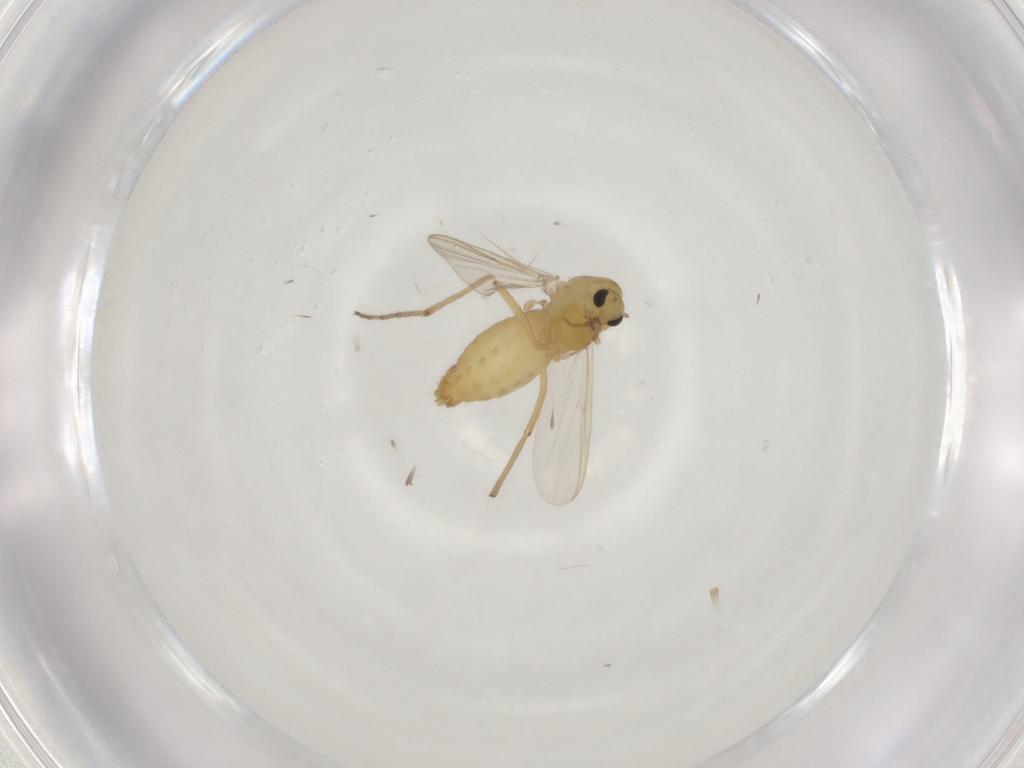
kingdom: Animalia
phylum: Arthropoda
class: Insecta
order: Diptera
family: Chironomidae
